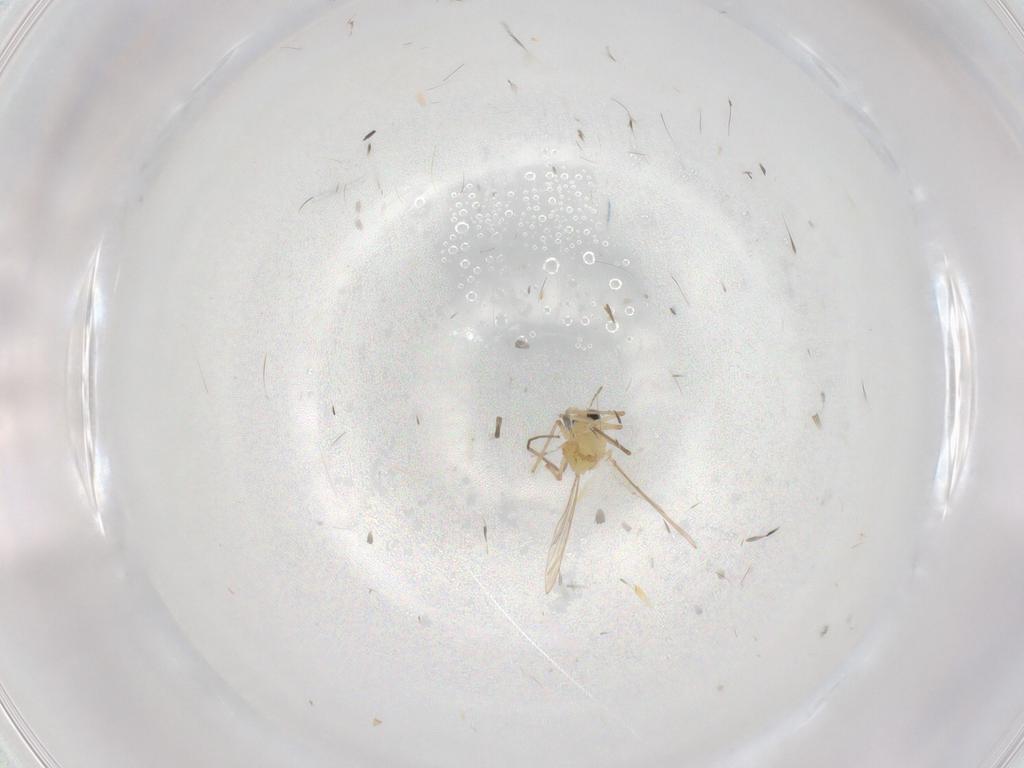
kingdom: Animalia
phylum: Arthropoda
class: Insecta
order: Diptera
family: Chironomidae
